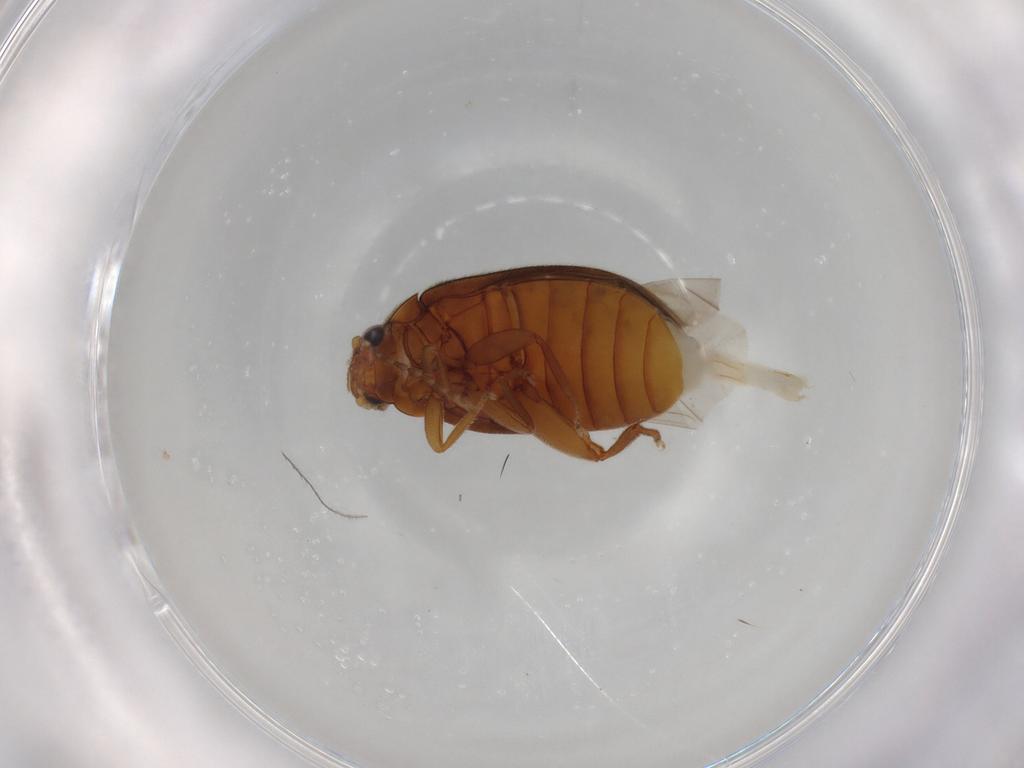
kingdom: Animalia
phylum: Arthropoda
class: Insecta
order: Coleoptera
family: Scirtidae
